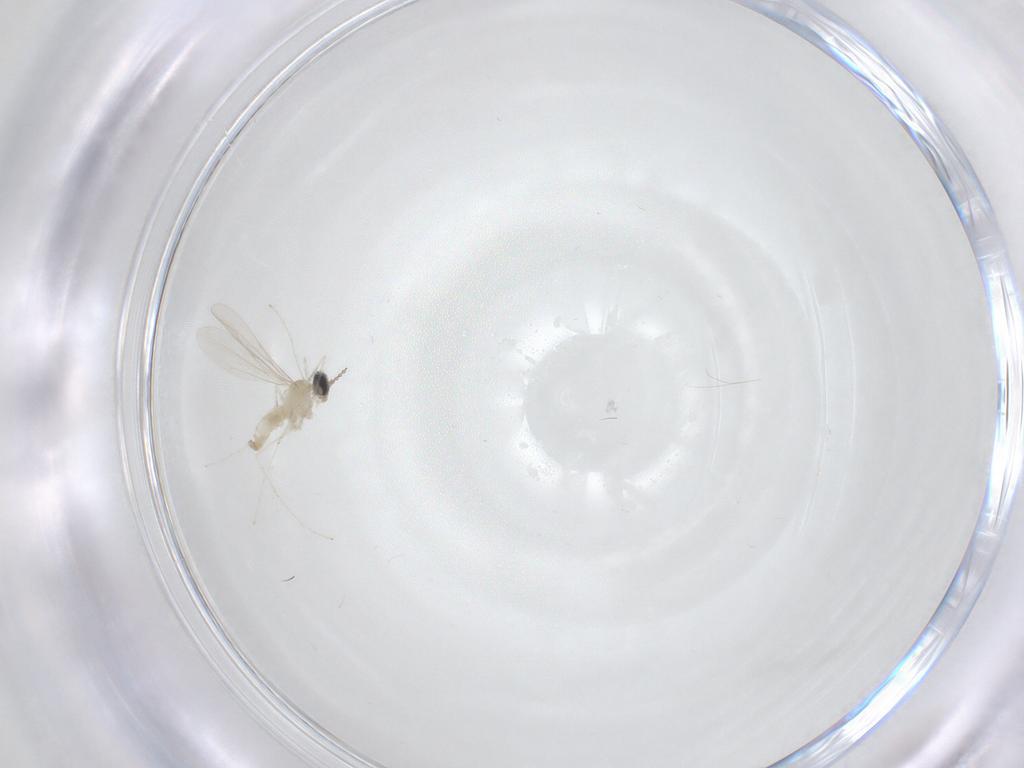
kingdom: Animalia
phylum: Arthropoda
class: Insecta
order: Diptera
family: Cecidomyiidae
